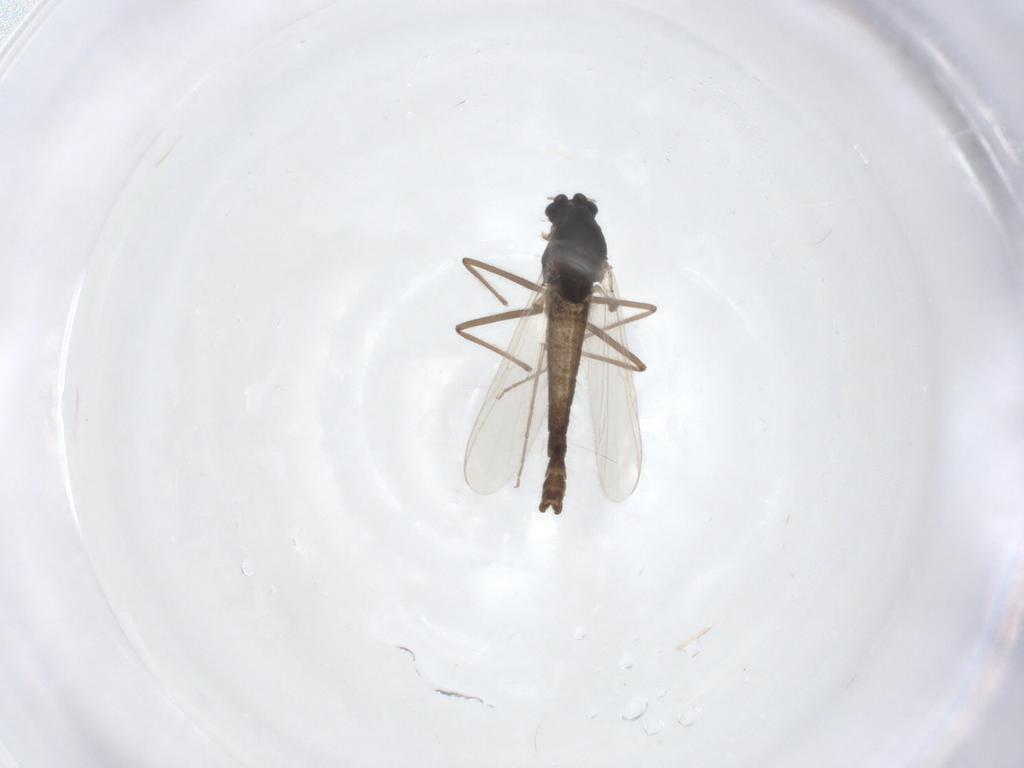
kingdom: Animalia
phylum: Arthropoda
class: Insecta
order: Diptera
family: Chironomidae
